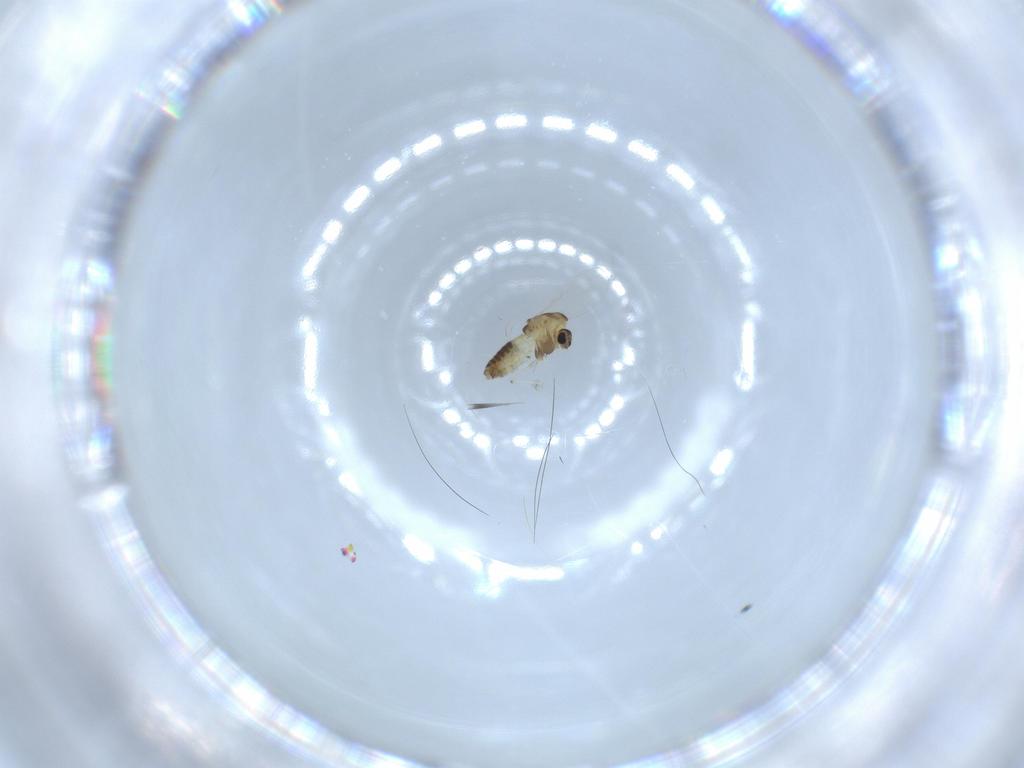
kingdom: Animalia
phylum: Arthropoda
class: Insecta
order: Diptera
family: Chironomidae
